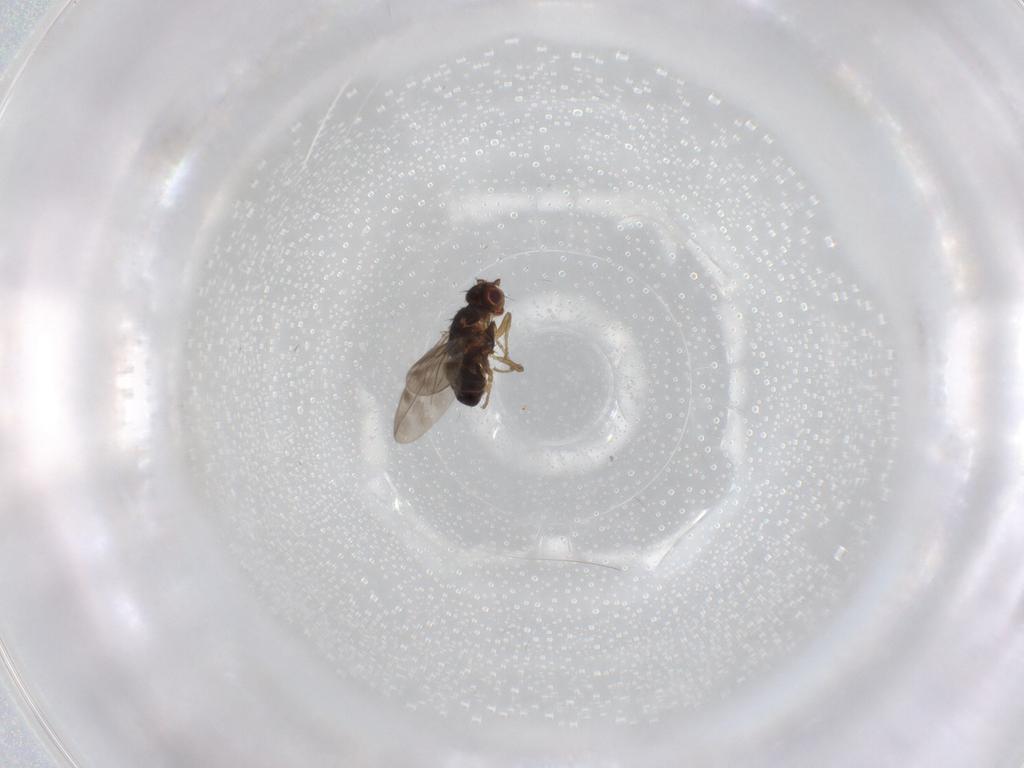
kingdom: Animalia
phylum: Arthropoda
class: Insecta
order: Diptera
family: Sphaeroceridae
